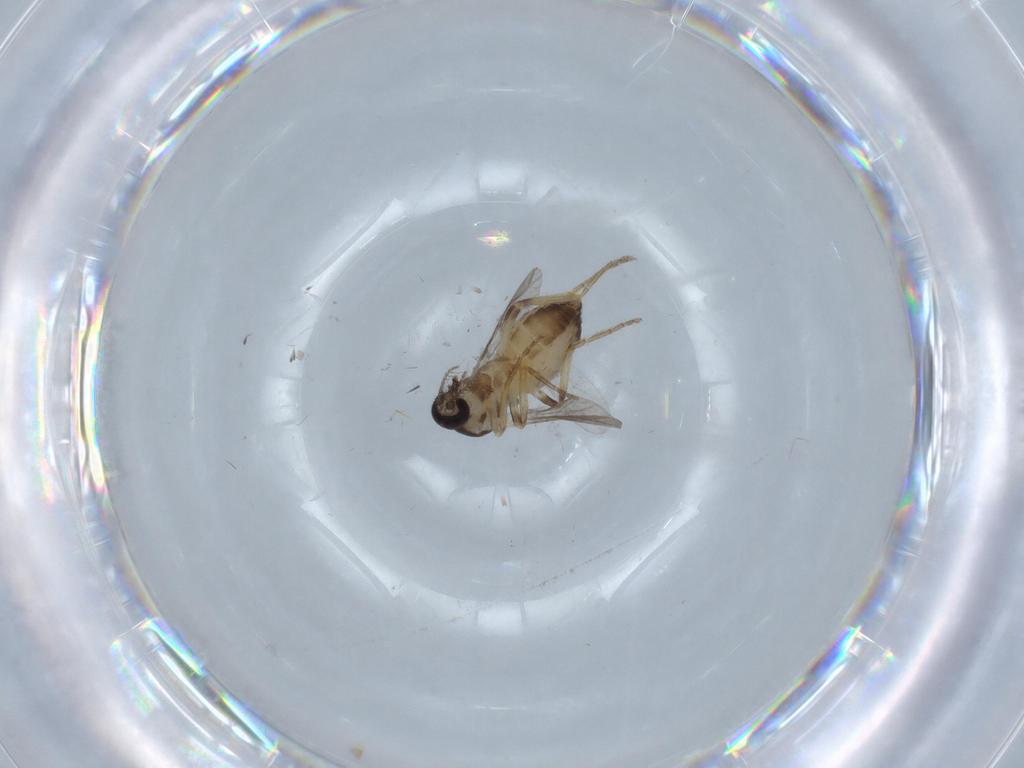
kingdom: Animalia
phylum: Arthropoda
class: Insecta
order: Diptera
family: Ceratopogonidae
